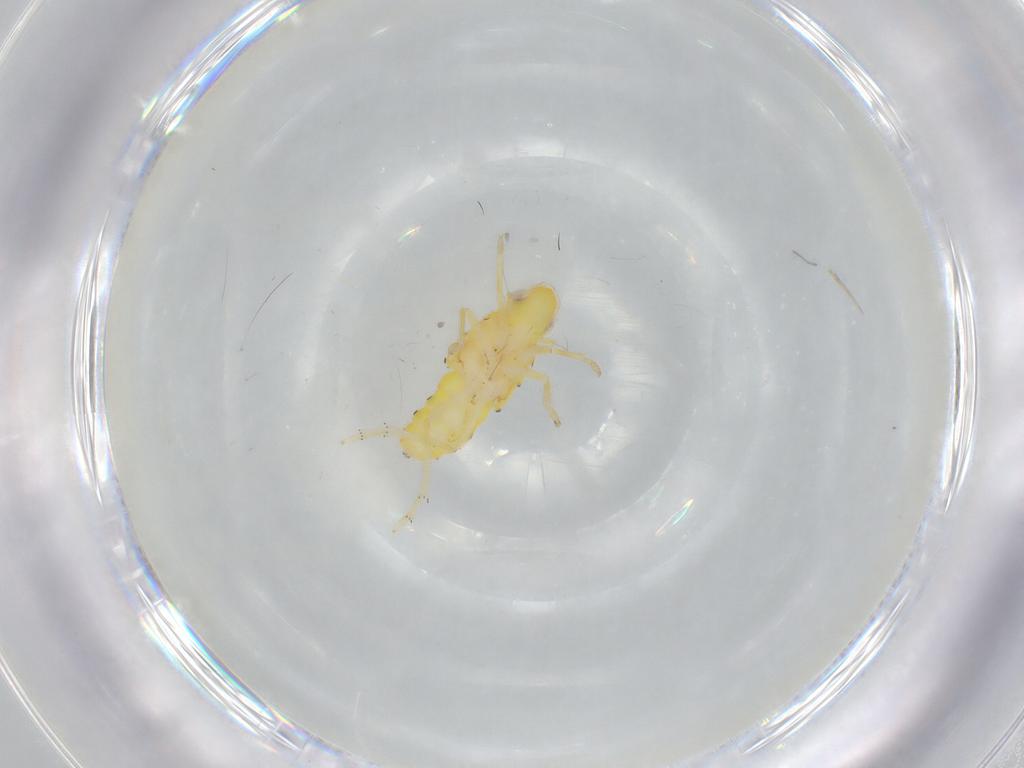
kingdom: Animalia
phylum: Arthropoda
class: Insecta
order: Hemiptera
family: Tropiduchidae
